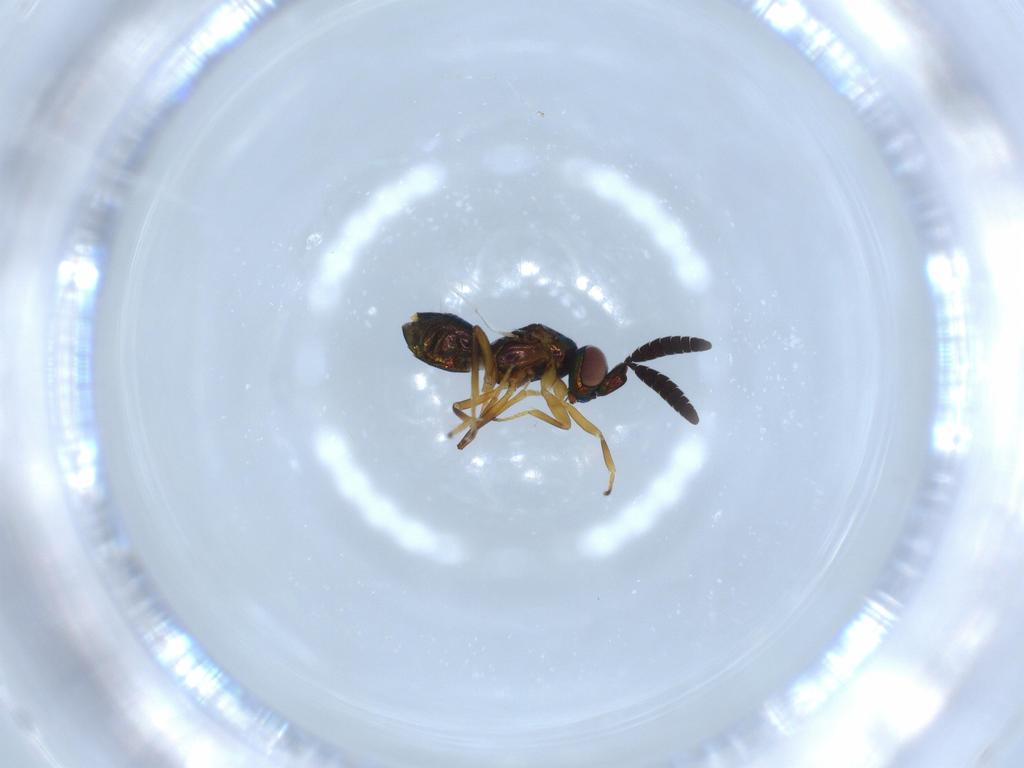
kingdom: Animalia
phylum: Arthropoda
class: Insecta
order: Hymenoptera
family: Encyrtidae
